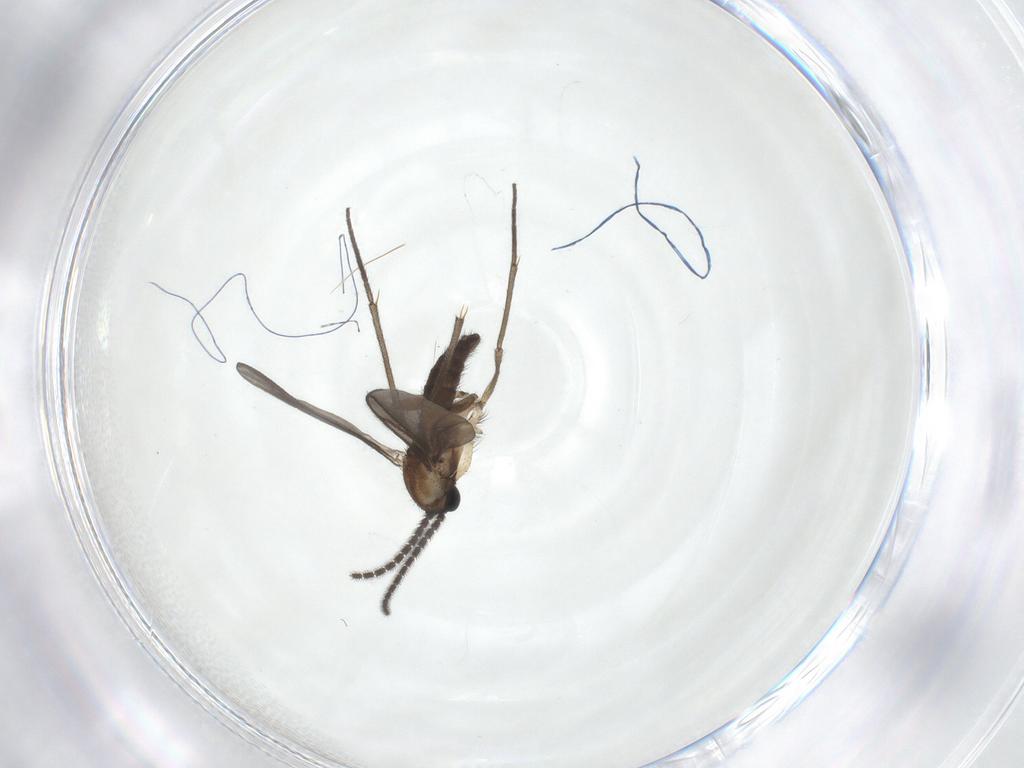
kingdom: Animalia
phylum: Arthropoda
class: Insecta
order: Diptera
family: Sciaridae
